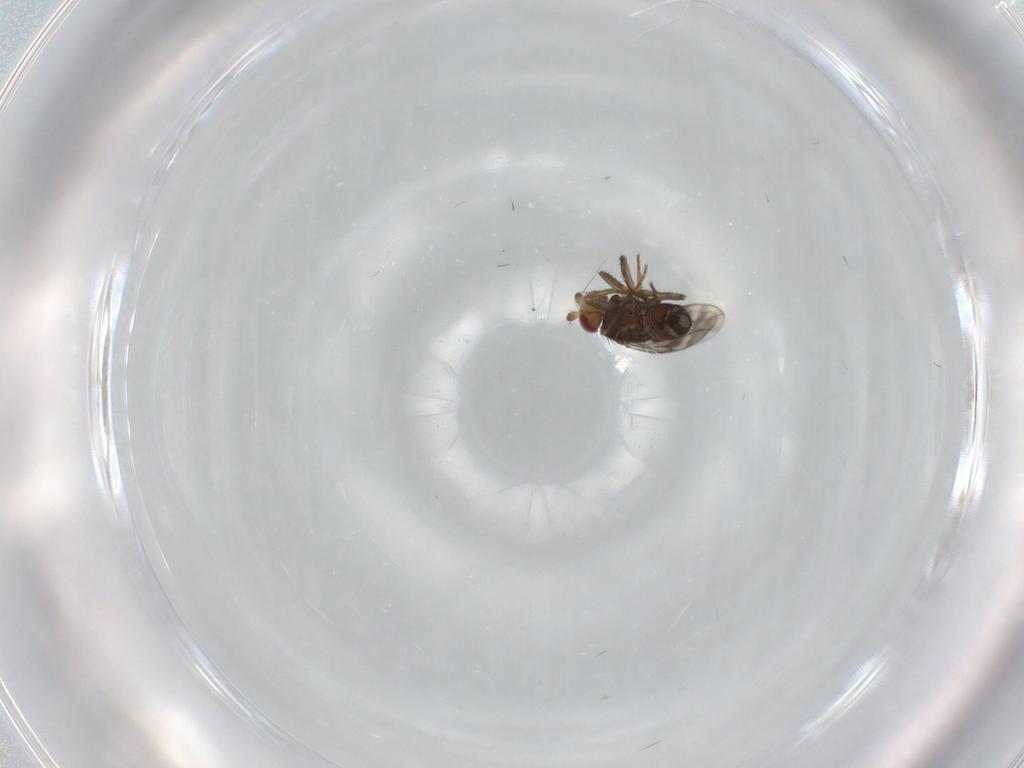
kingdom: Animalia
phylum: Arthropoda
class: Insecta
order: Diptera
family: Sphaeroceridae
